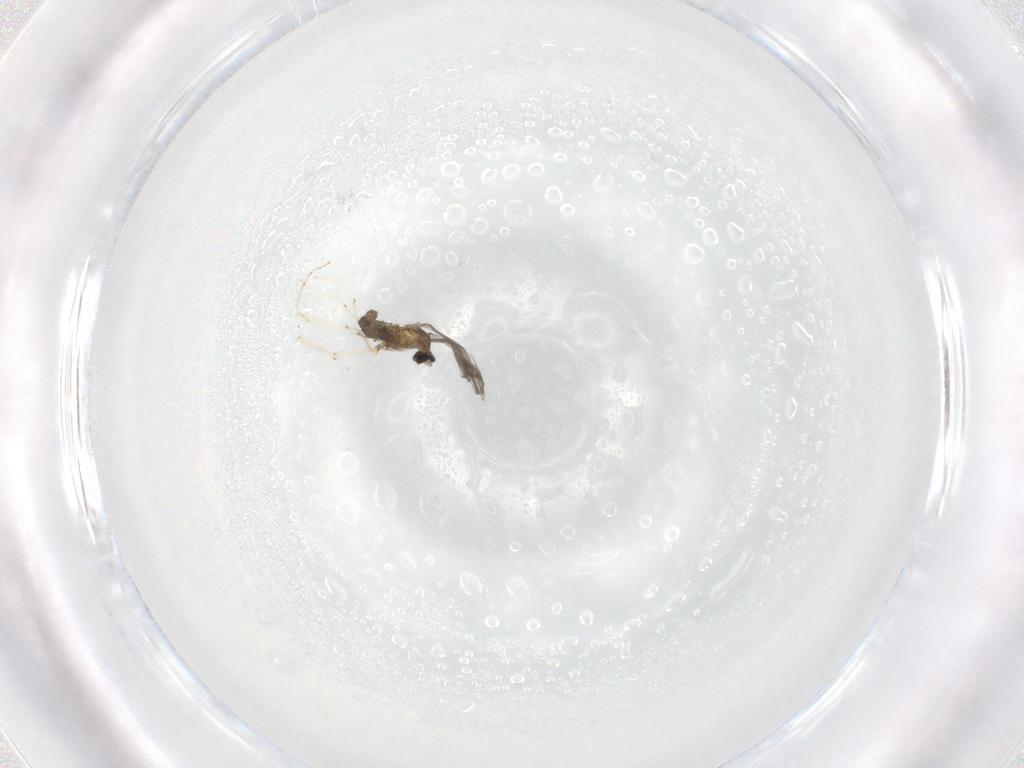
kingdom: Animalia
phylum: Arthropoda
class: Insecta
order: Diptera
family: Cecidomyiidae
